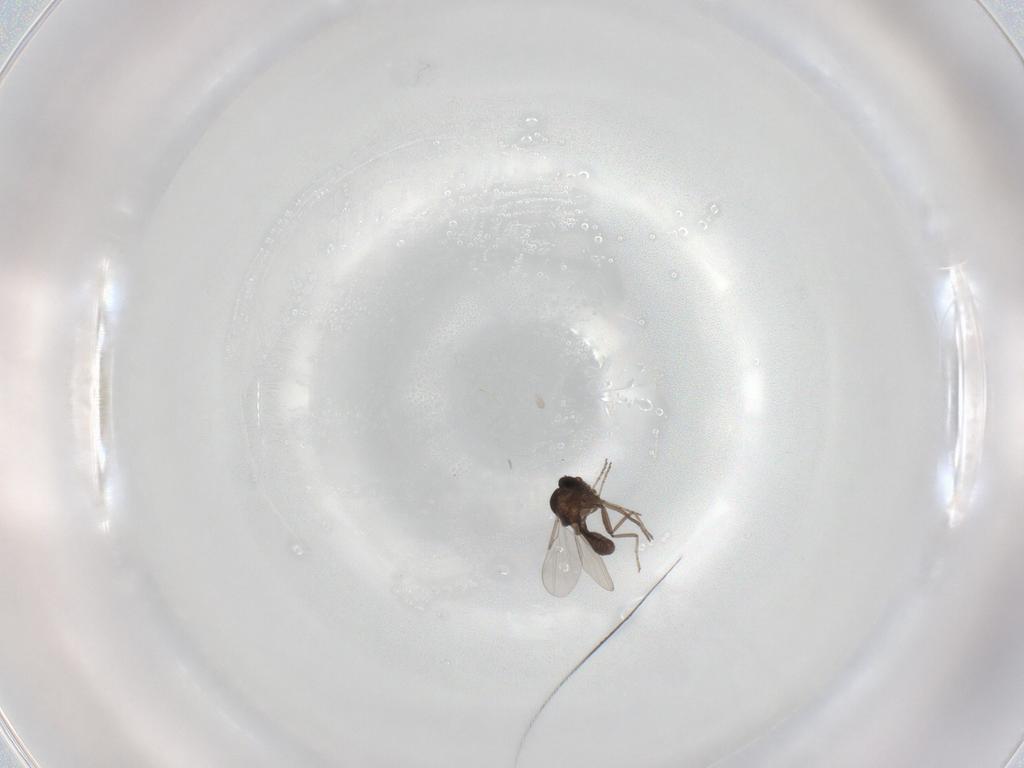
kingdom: Animalia
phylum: Arthropoda
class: Insecta
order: Diptera
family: Ceratopogonidae
